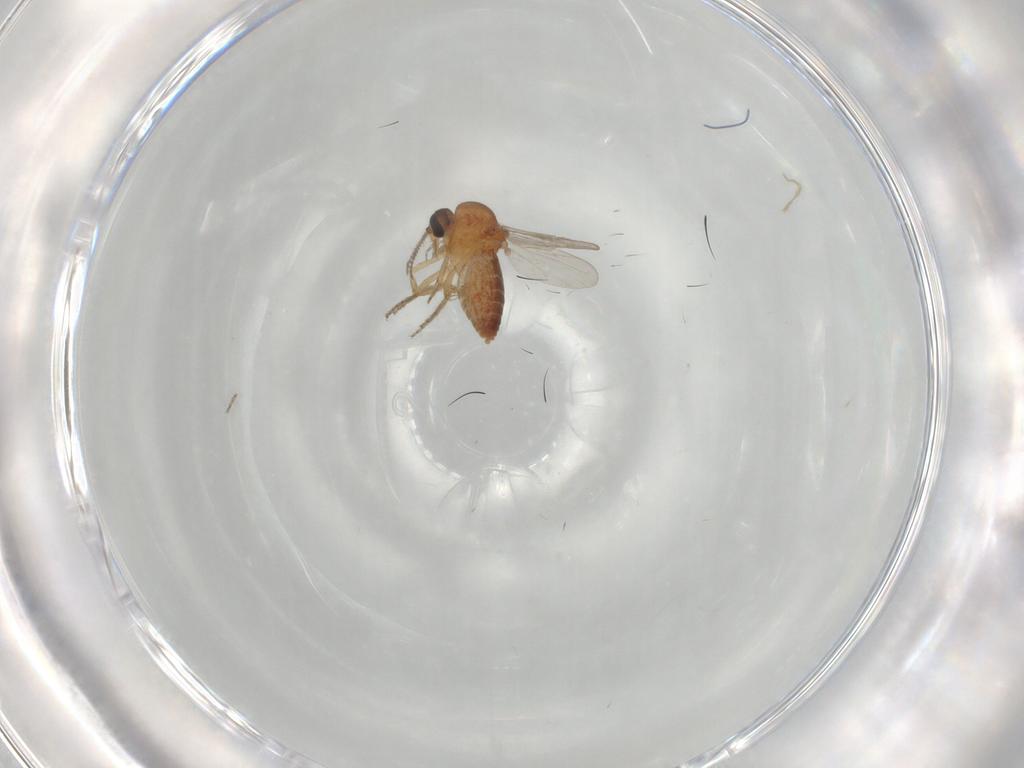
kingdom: Animalia
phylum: Arthropoda
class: Insecta
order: Diptera
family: Ceratopogonidae
